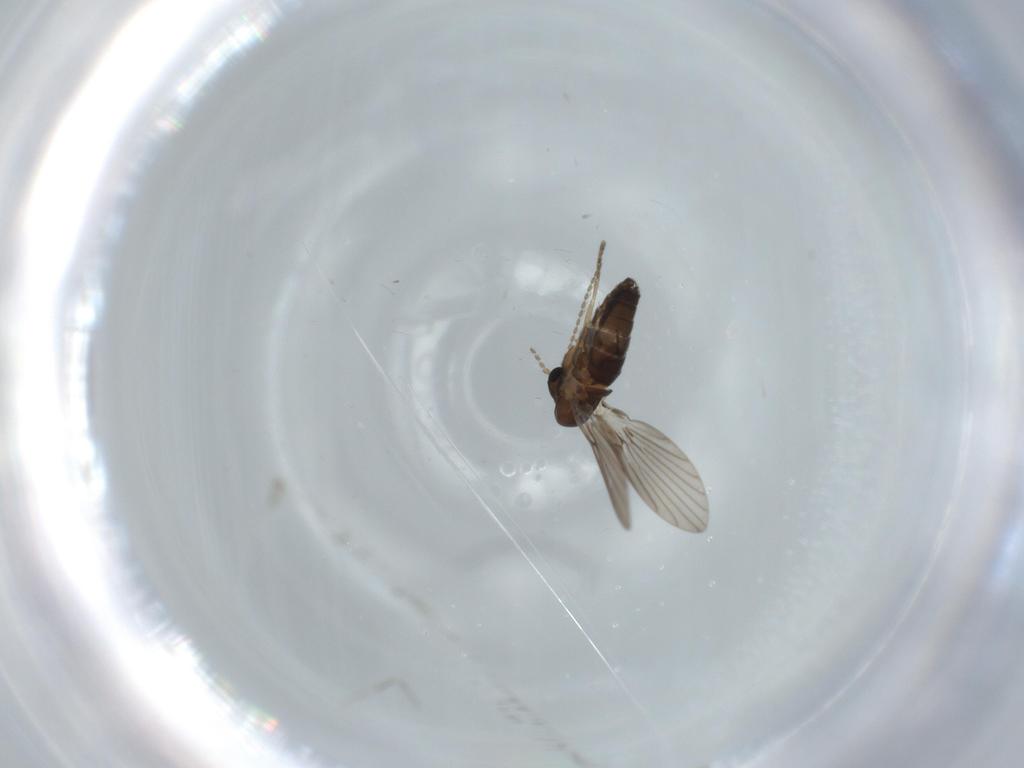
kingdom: Animalia
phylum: Arthropoda
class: Insecta
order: Diptera
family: Cecidomyiidae
